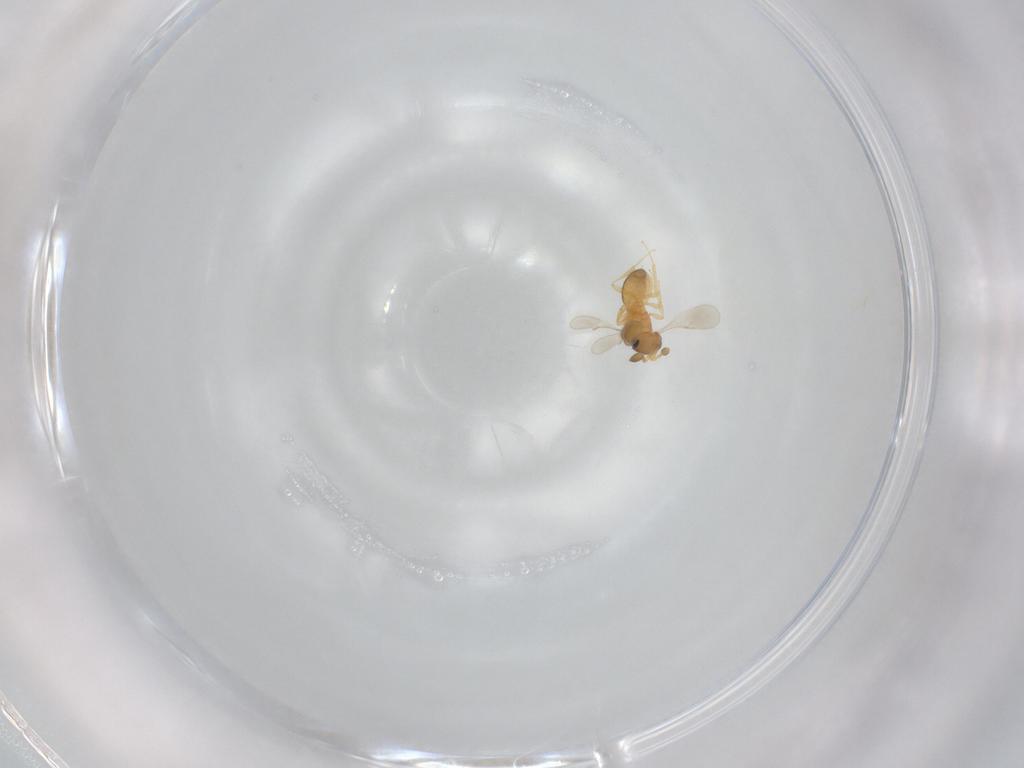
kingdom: Animalia
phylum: Arthropoda
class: Insecta
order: Hymenoptera
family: Scelionidae
